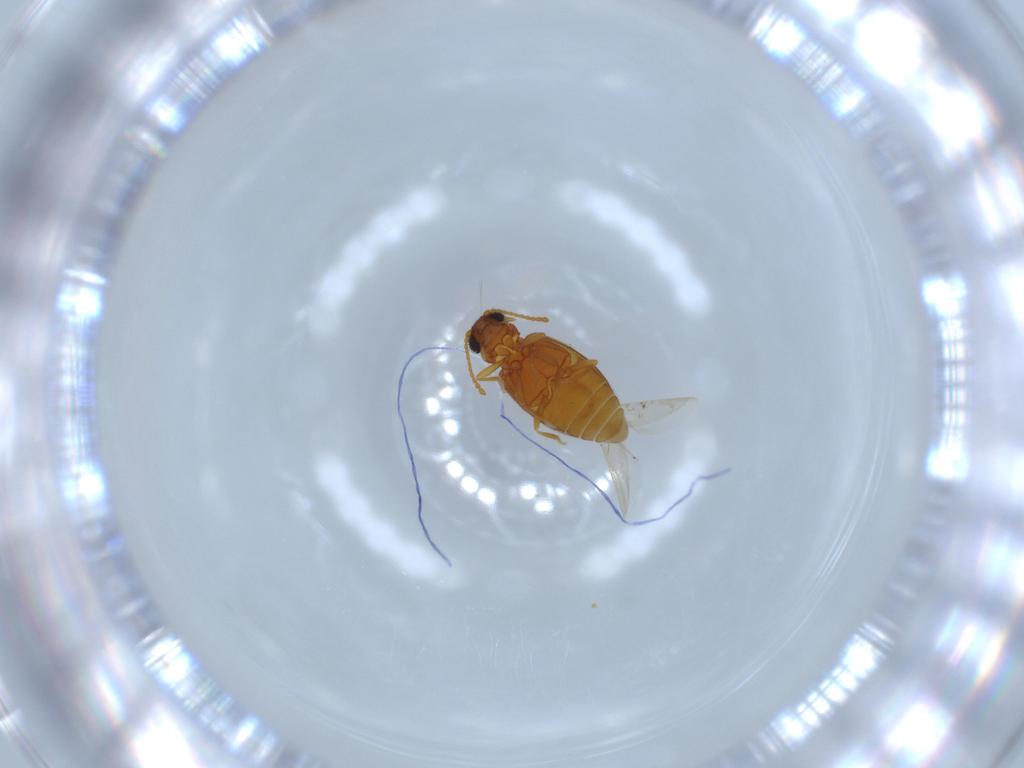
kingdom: Animalia
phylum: Arthropoda
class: Insecta
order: Coleoptera
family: Aderidae
